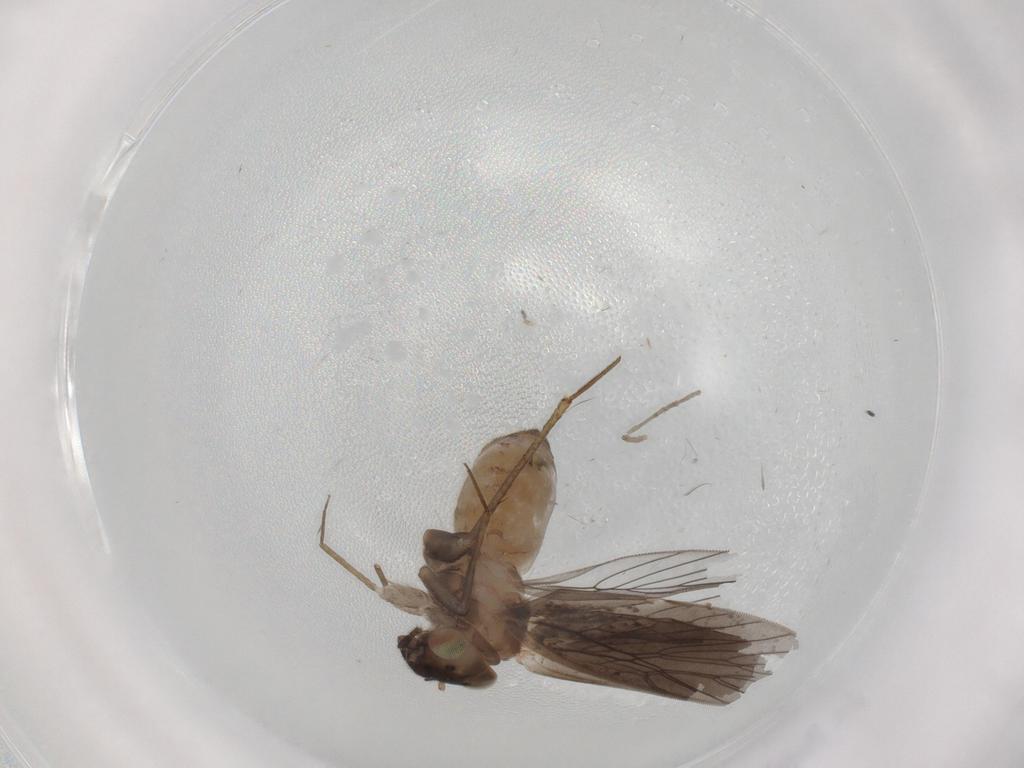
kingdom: Animalia
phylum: Arthropoda
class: Insecta
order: Psocodea
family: Lepidopsocidae
